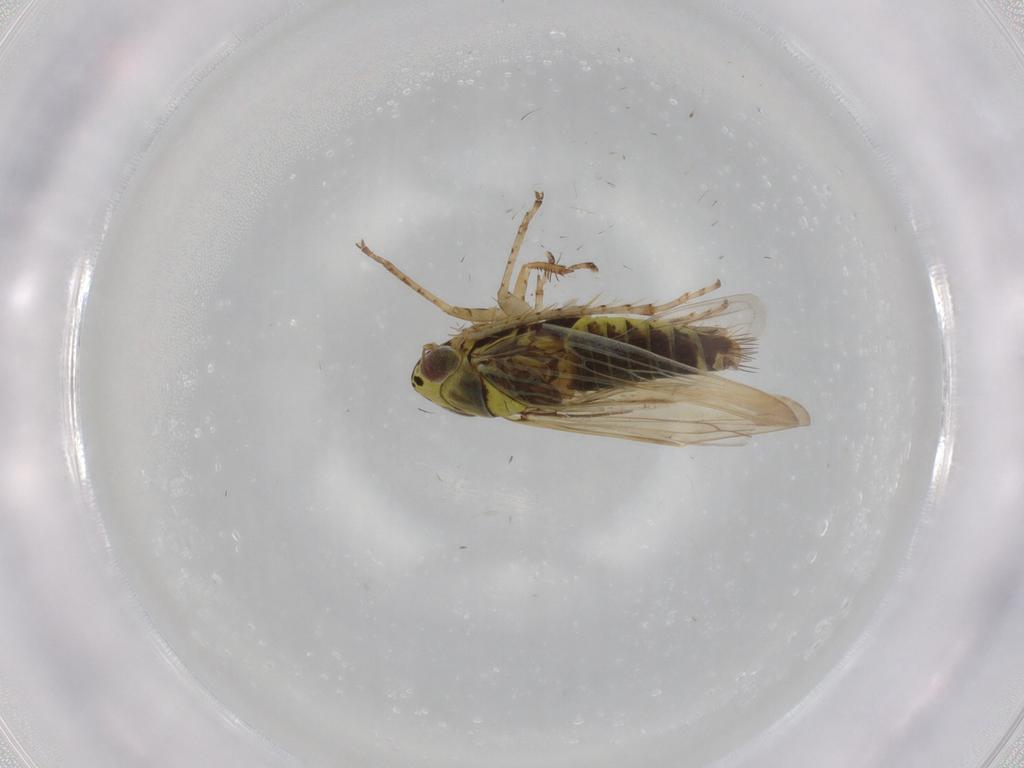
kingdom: Animalia
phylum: Arthropoda
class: Insecta
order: Hemiptera
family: Cicadellidae
